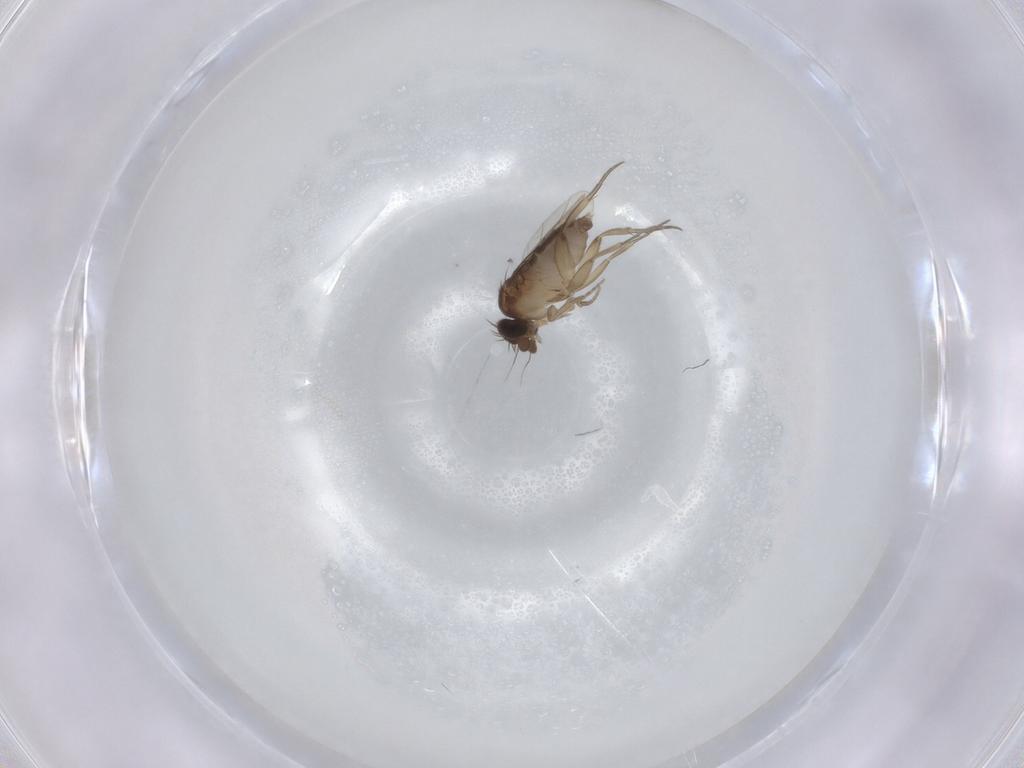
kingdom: Animalia
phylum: Arthropoda
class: Insecta
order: Diptera
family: Phoridae
